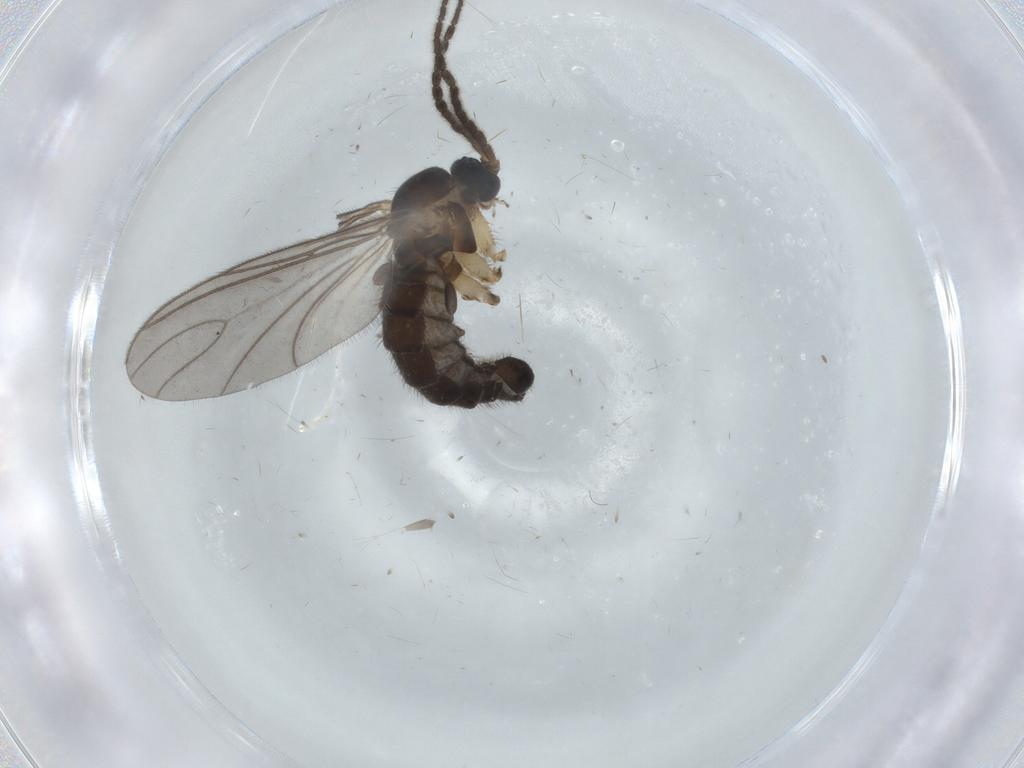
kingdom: Animalia
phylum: Arthropoda
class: Insecta
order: Diptera
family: Sciaridae
